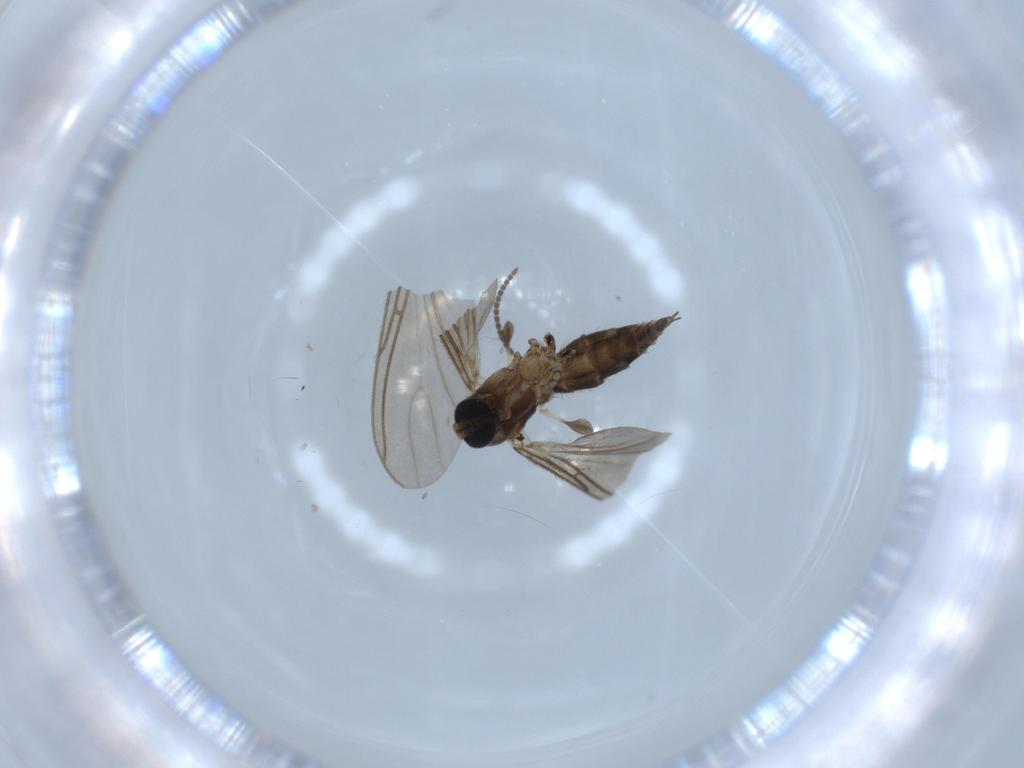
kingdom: Animalia
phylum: Arthropoda
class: Insecta
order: Diptera
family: Sciaridae
